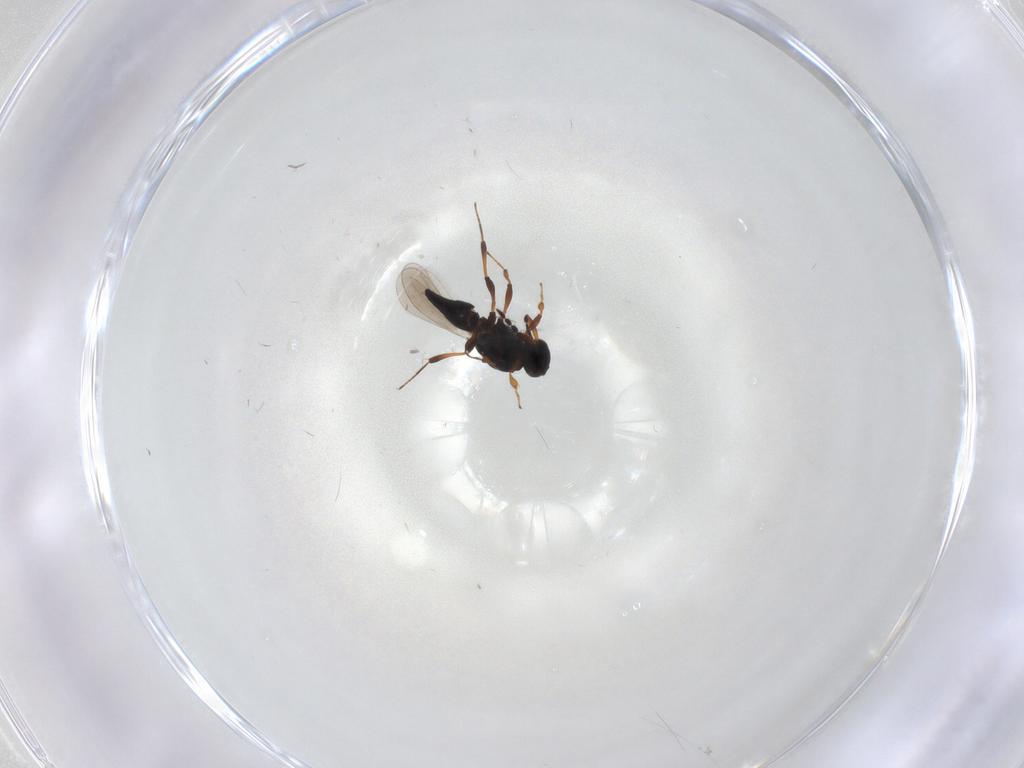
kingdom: Animalia
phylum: Arthropoda
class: Insecta
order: Hymenoptera
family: Platygastridae
